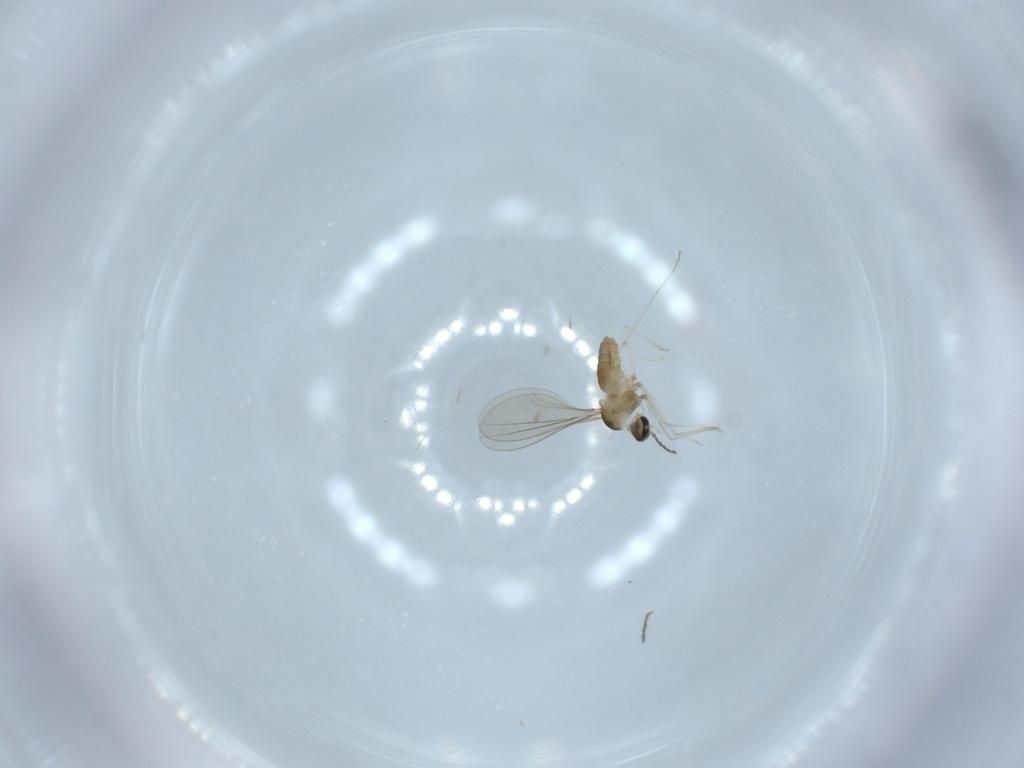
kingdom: Animalia
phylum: Arthropoda
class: Insecta
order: Diptera
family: Cecidomyiidae
